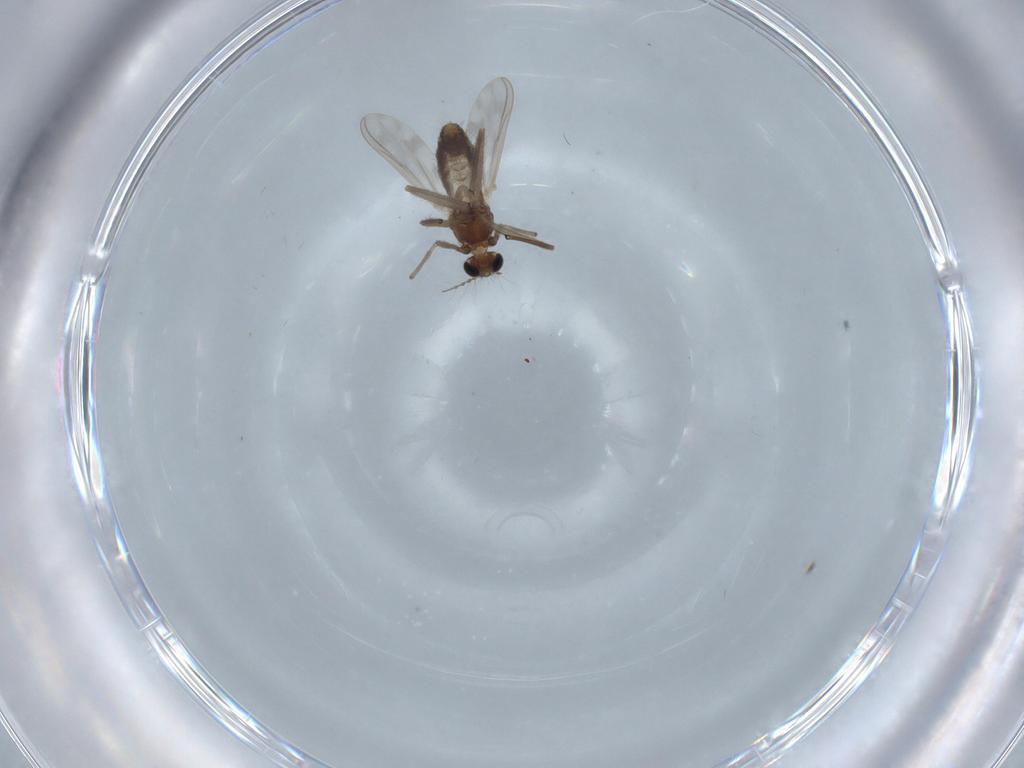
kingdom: Animalia
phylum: Arthropoda
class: Insecta
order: Diptera
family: Chironomidae
